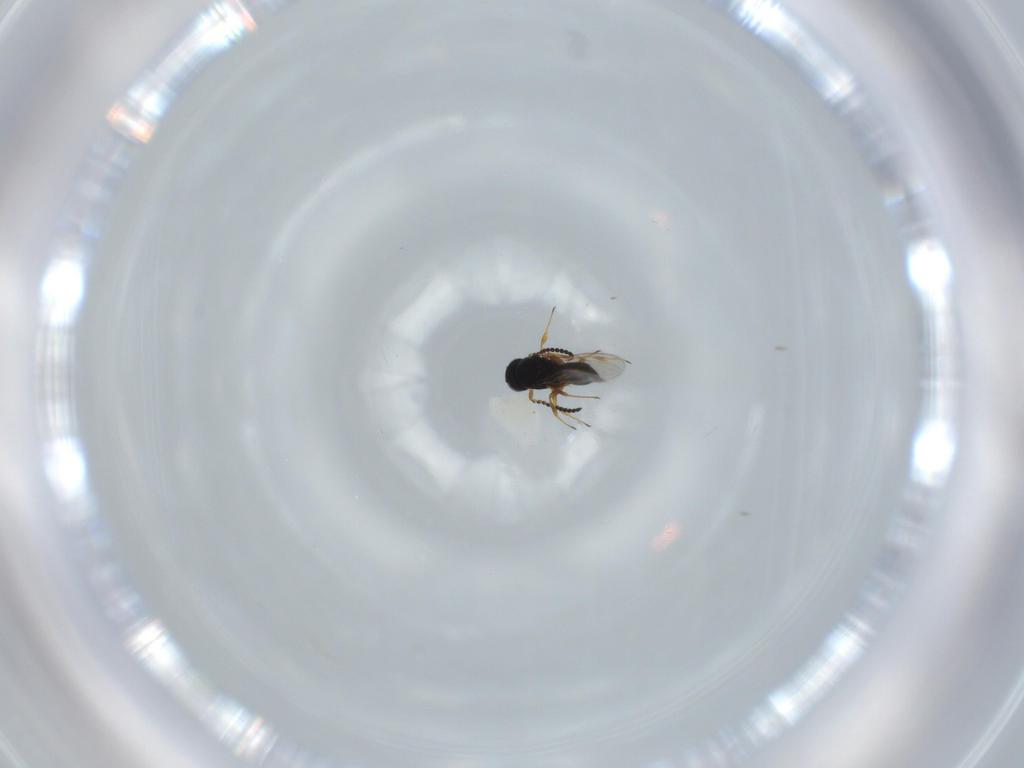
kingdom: Animalia
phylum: Arthropoda
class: Insecta
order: Hymenoptera
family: Scelionidae
